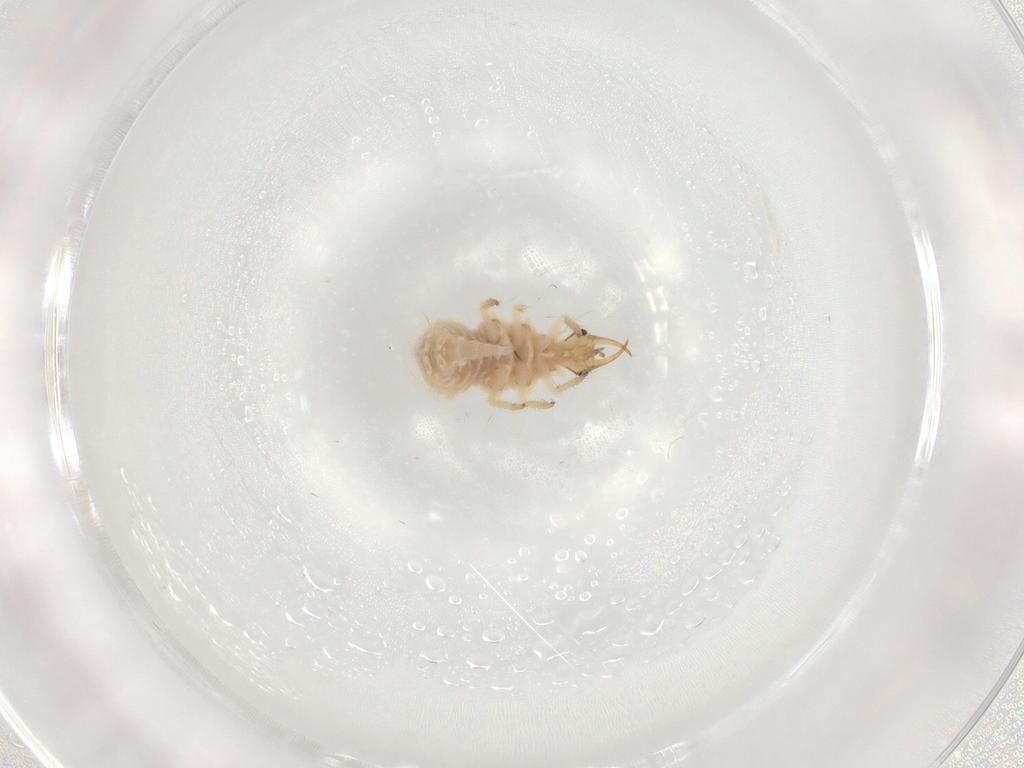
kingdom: Animalia
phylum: Arthropoda
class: Insecta
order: Neuroptera
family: Chrysopidae
